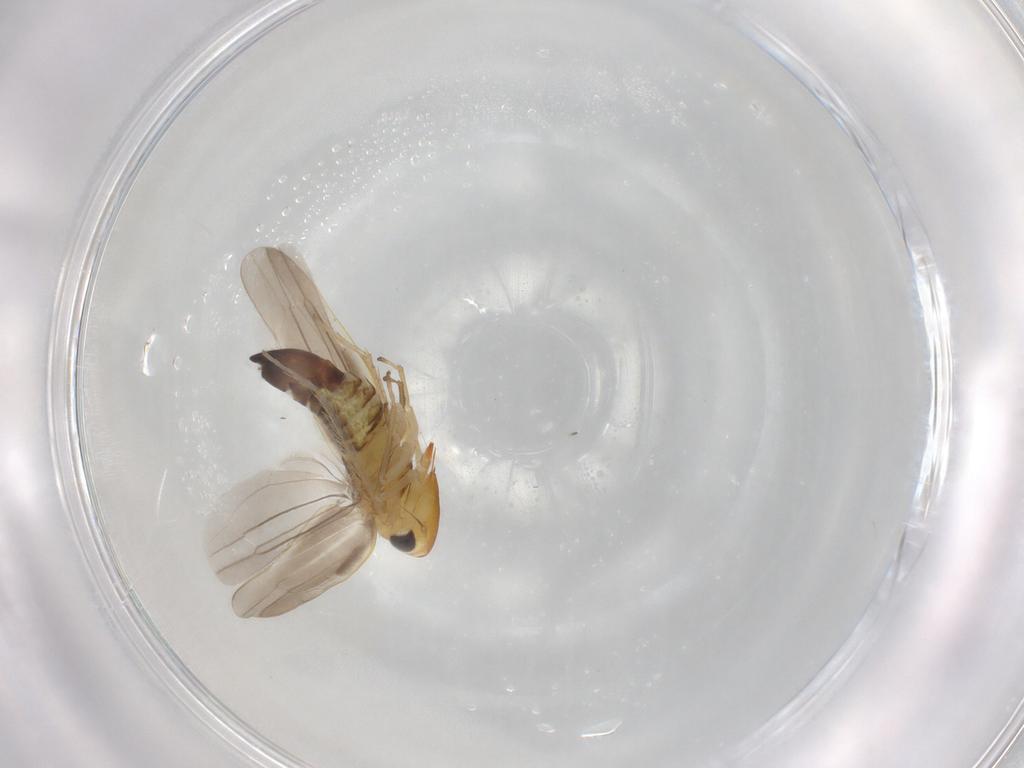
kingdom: Animalia
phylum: Arthropoda
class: Insecta
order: Hemiptera
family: Cicadellidae
